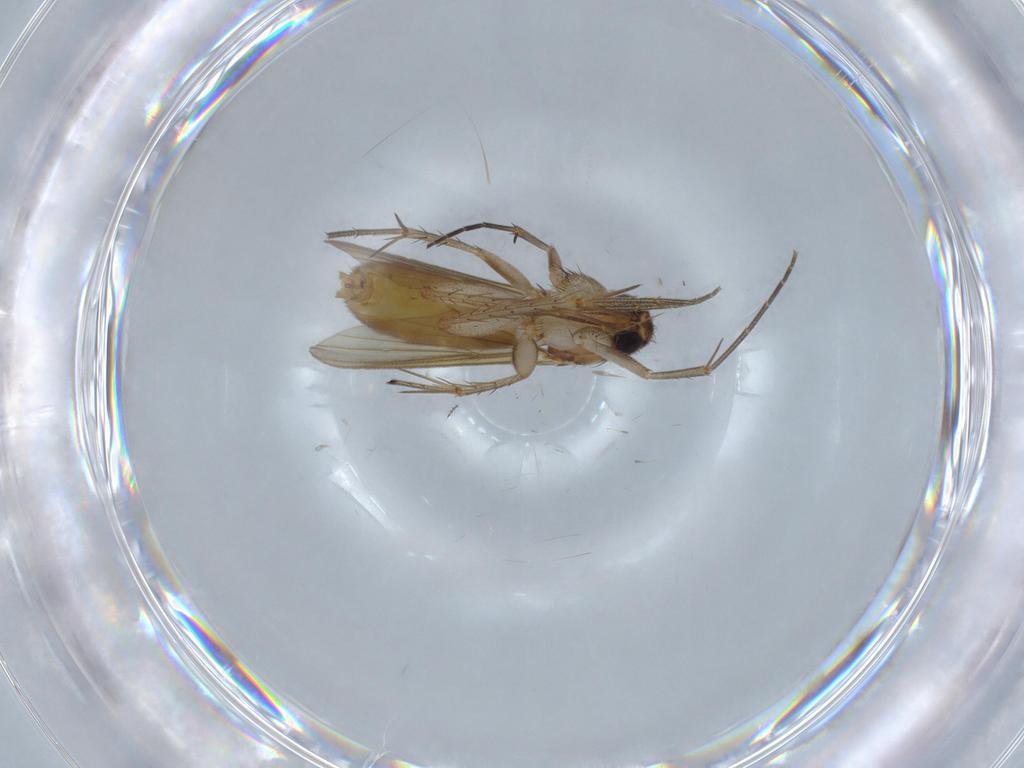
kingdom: Animalia
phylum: Arthropoda
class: Insecta
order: Diptera
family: Mycetophilidae
